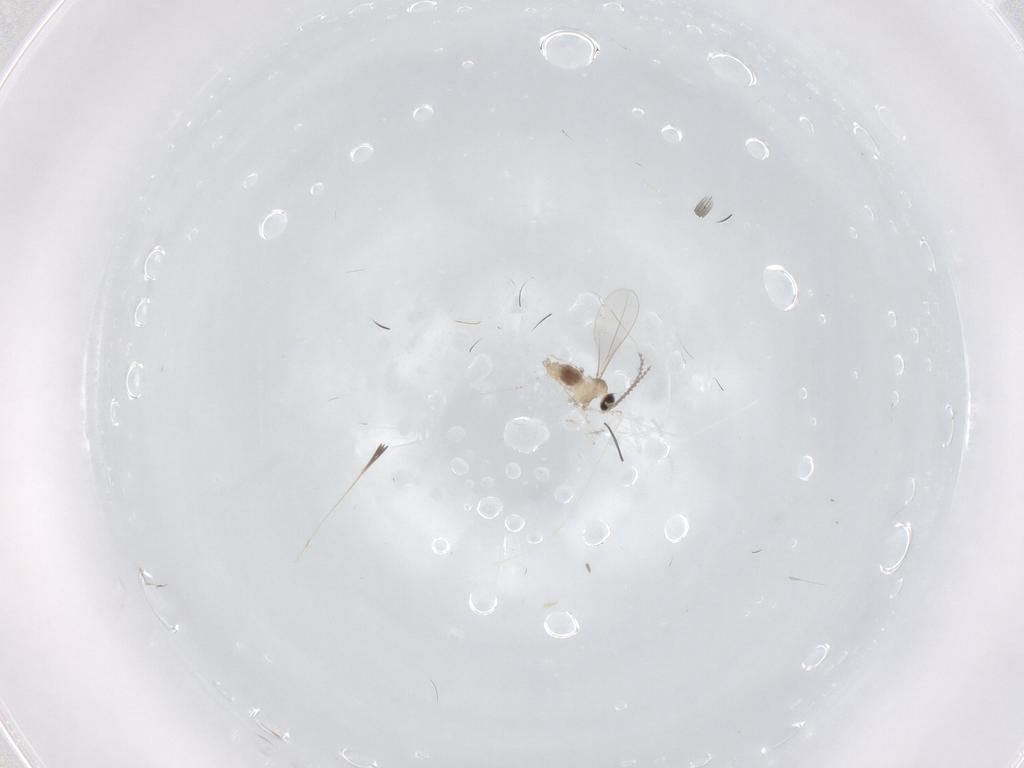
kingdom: Animalia
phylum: Arthropoda
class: Insecta
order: Diptera
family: Cecidomyiidae
